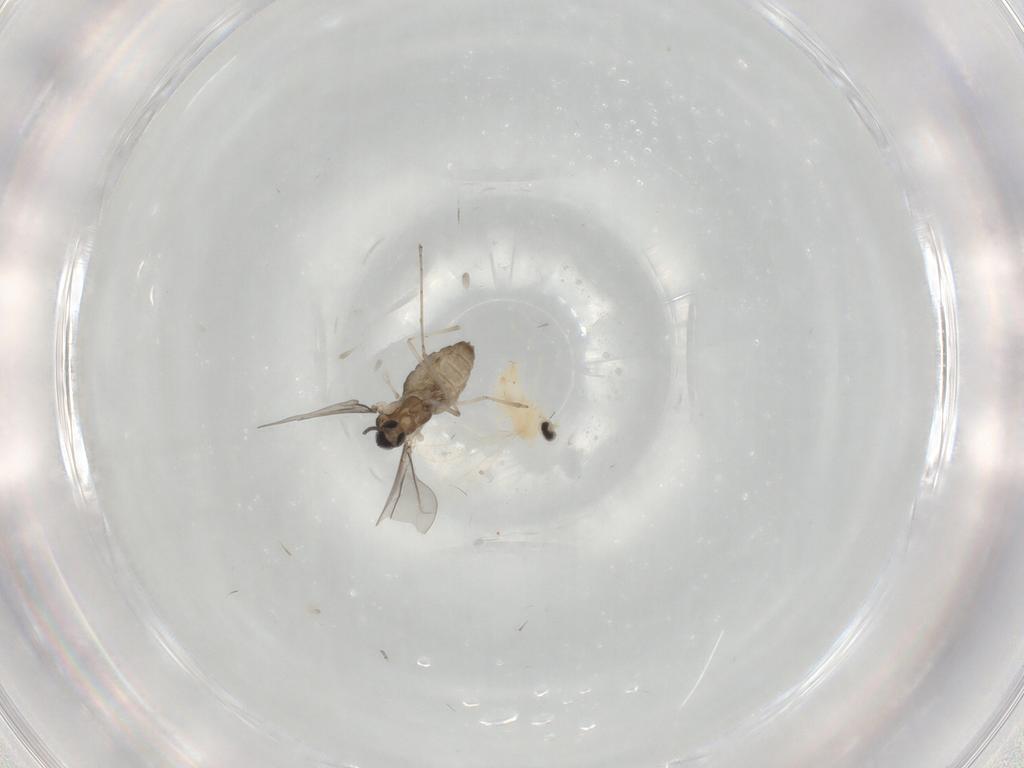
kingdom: Animalia
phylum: Arthropoda
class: Insecta
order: Diptera
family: Cecidomyiidae
